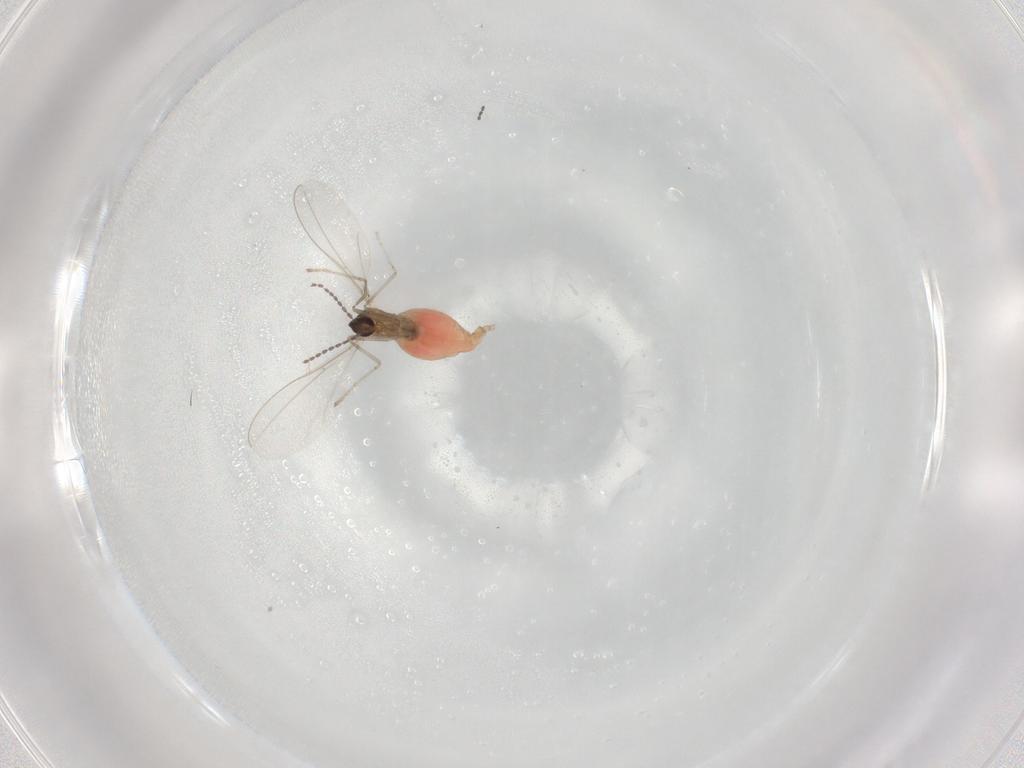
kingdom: Animalia
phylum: Arthropoda
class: Insecta
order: Diptera
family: Cecidomyiidae
